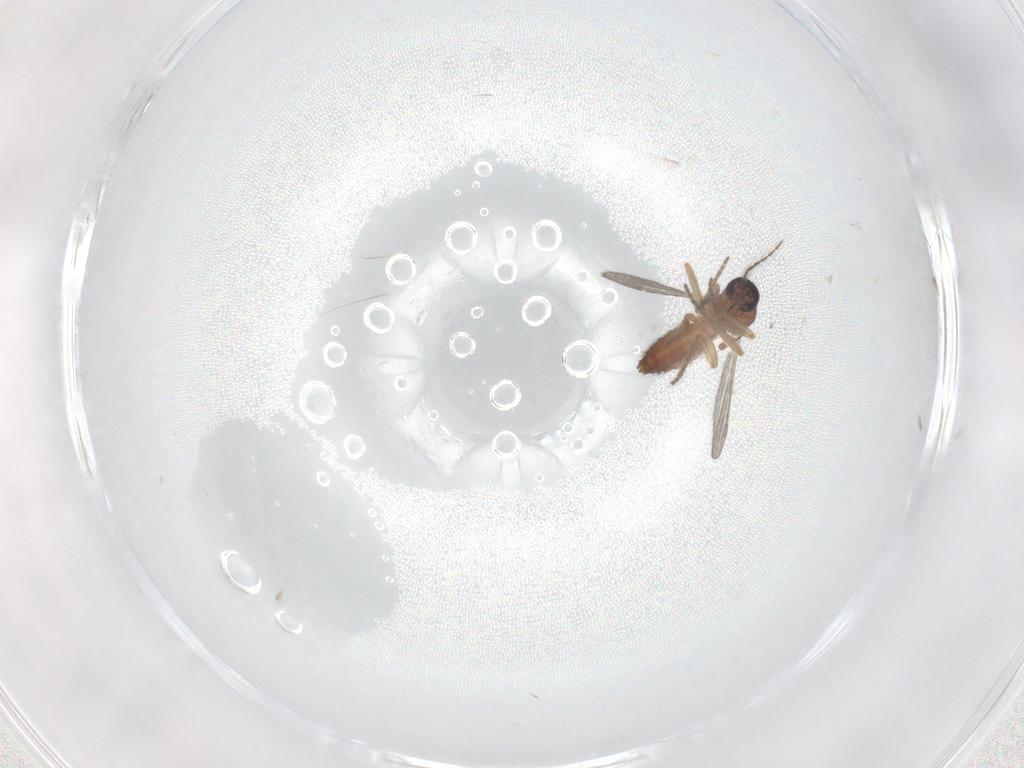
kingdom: Animalia
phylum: Arthropoda
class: Insecta
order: Diptera
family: Ceratopogonidae
